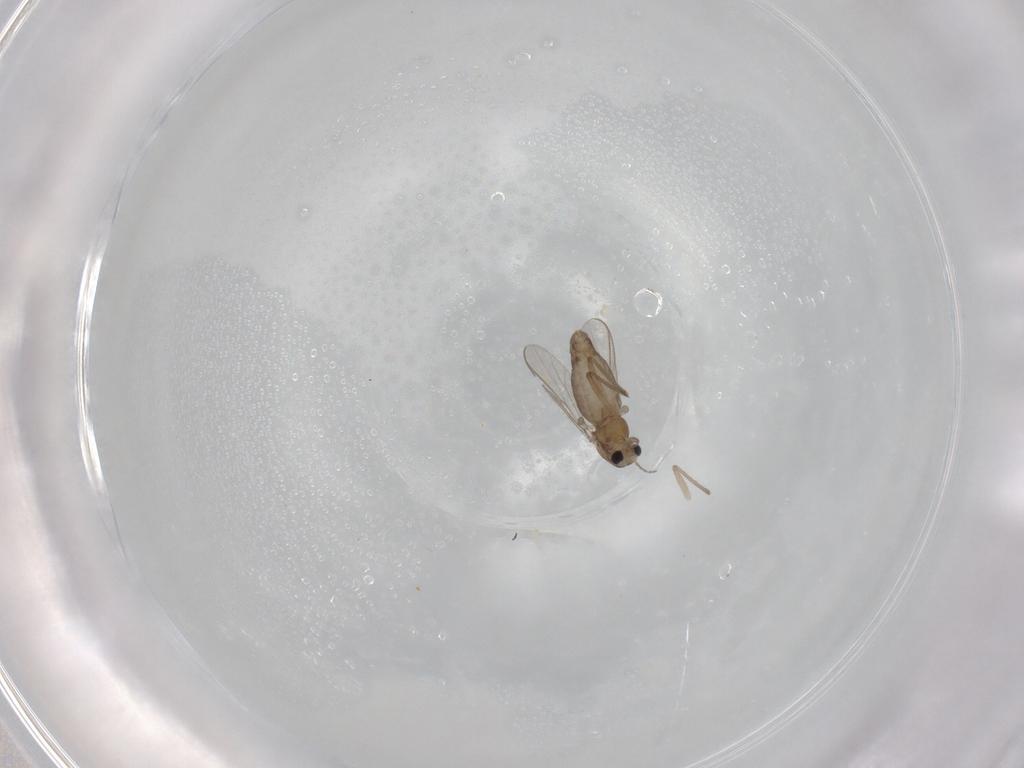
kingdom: Animalia
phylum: Arthropoda
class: Insecta
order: Diptera
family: Chironomidae
